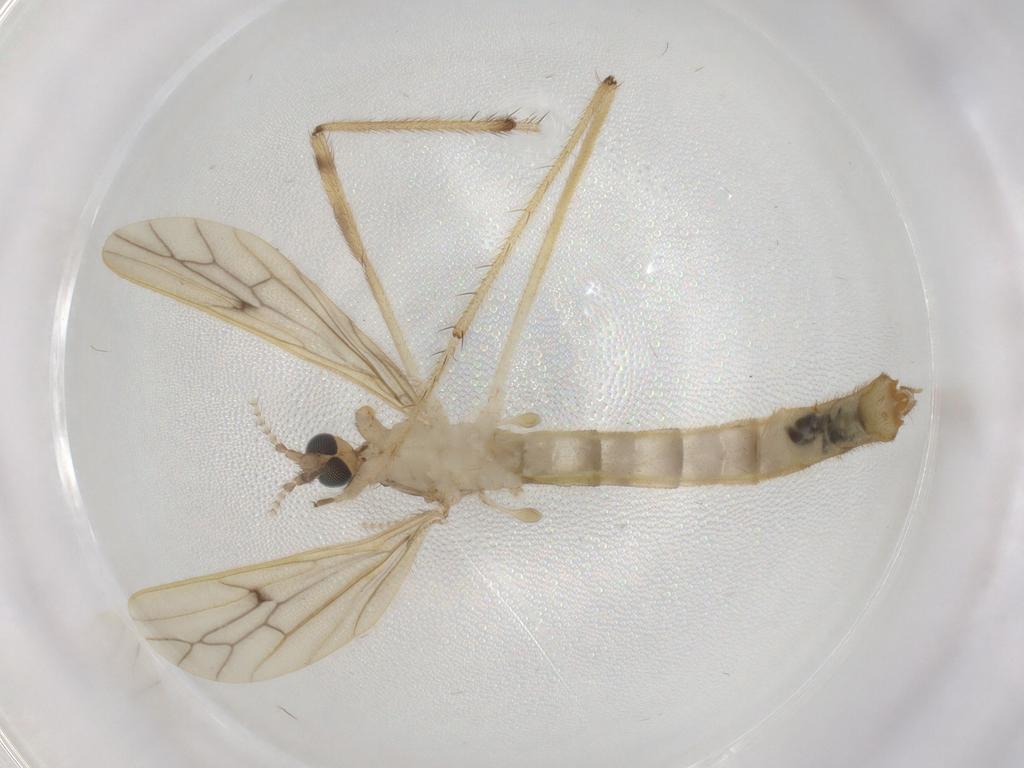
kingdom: Animalia
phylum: Arthropoda
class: Insecta
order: Diptera
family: Limoniidae
